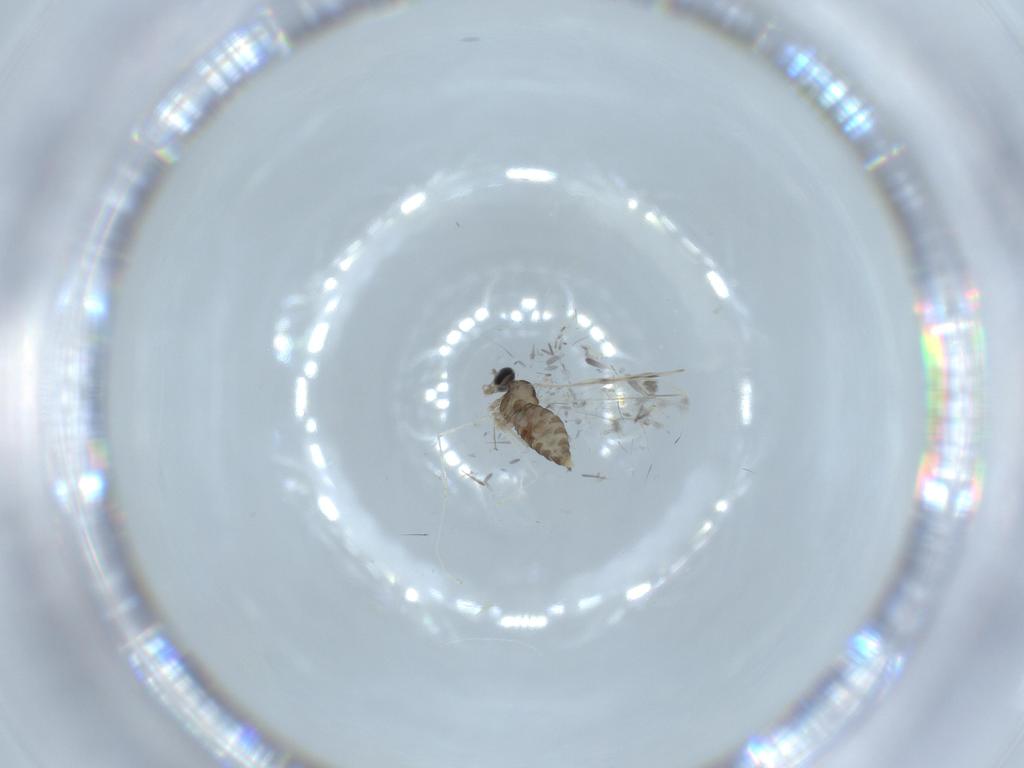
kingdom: Animalia
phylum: Arthropoda
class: Insecta
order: Diptera
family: Cecidomyiidae
